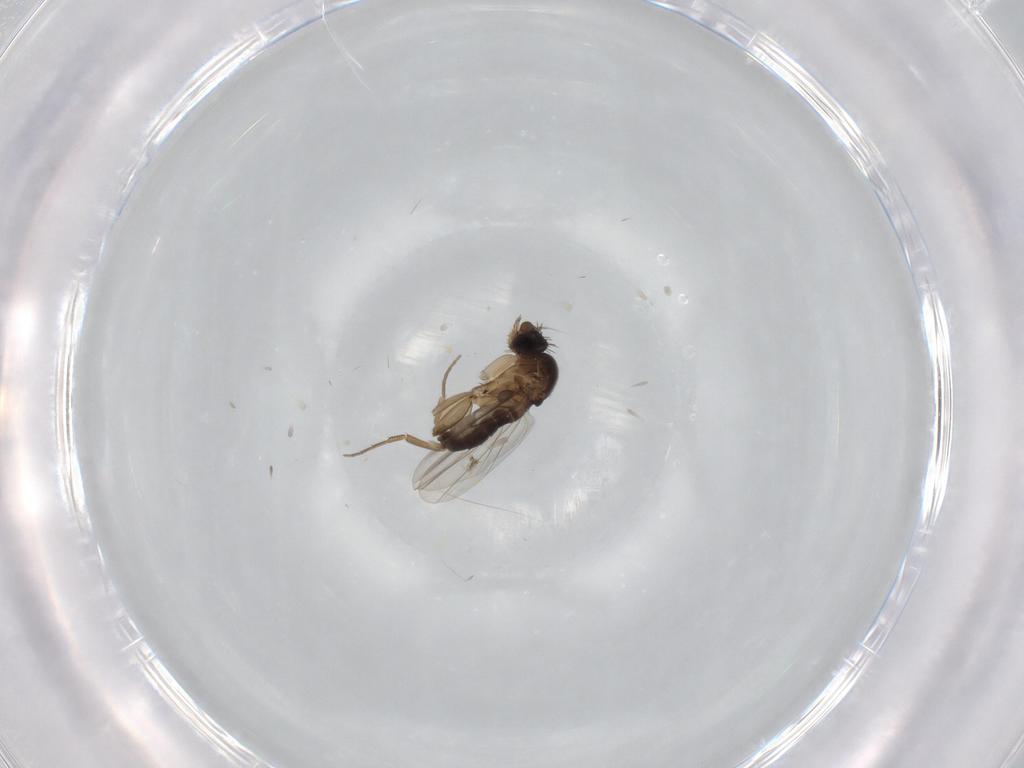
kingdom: Animalia
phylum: Arthropoda
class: Insecta
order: Diptera
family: Phoridae
